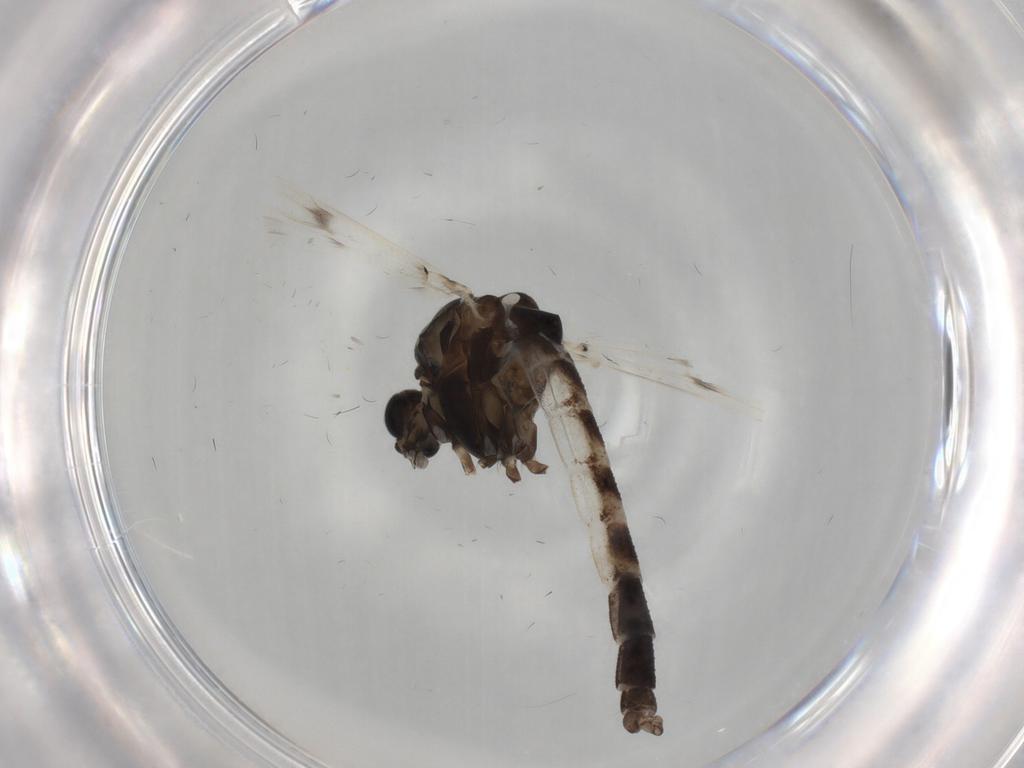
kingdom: Animalia
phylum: Arthropoda
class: Insecta
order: Diptera
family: Chironomidae
